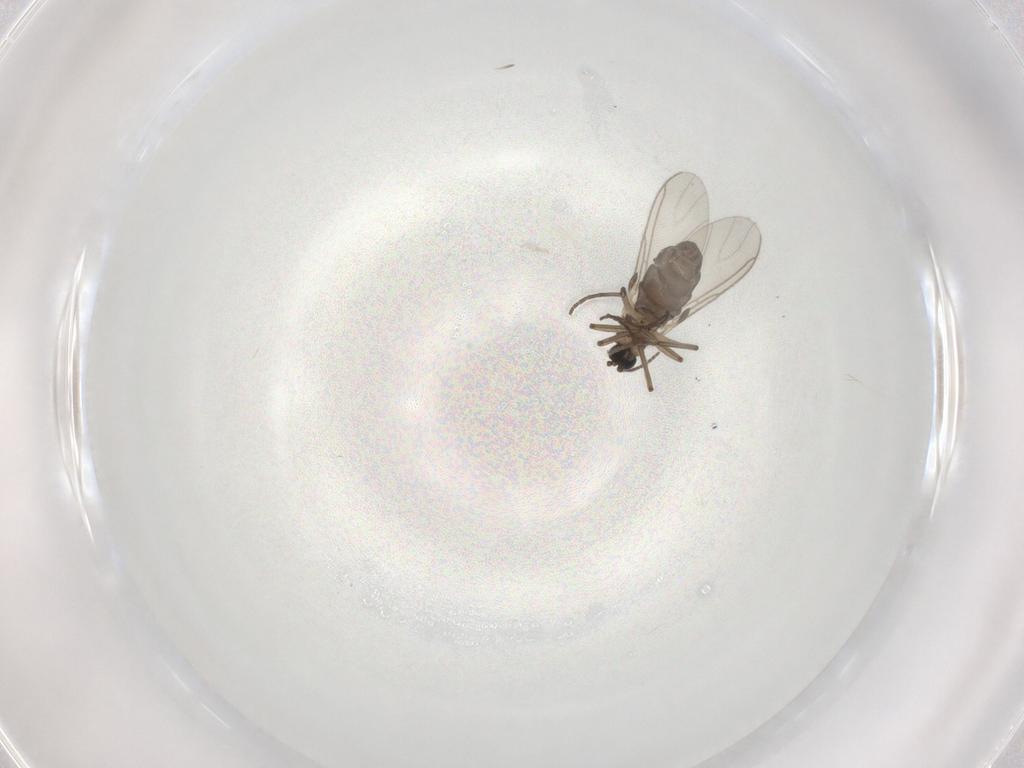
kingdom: Animalia
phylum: Arthropoda
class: Insecta
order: Diptera
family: Sciaridae
